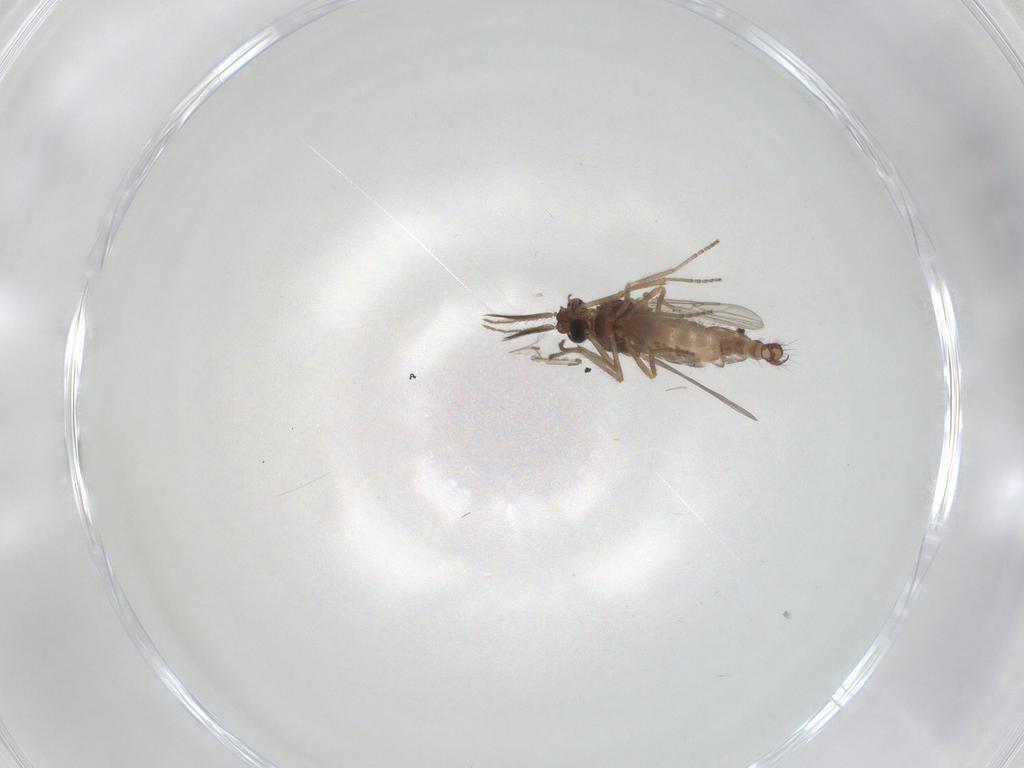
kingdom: Animalia
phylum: Arthropoda
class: Insecta
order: Diptera
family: Ceratopogonidae
